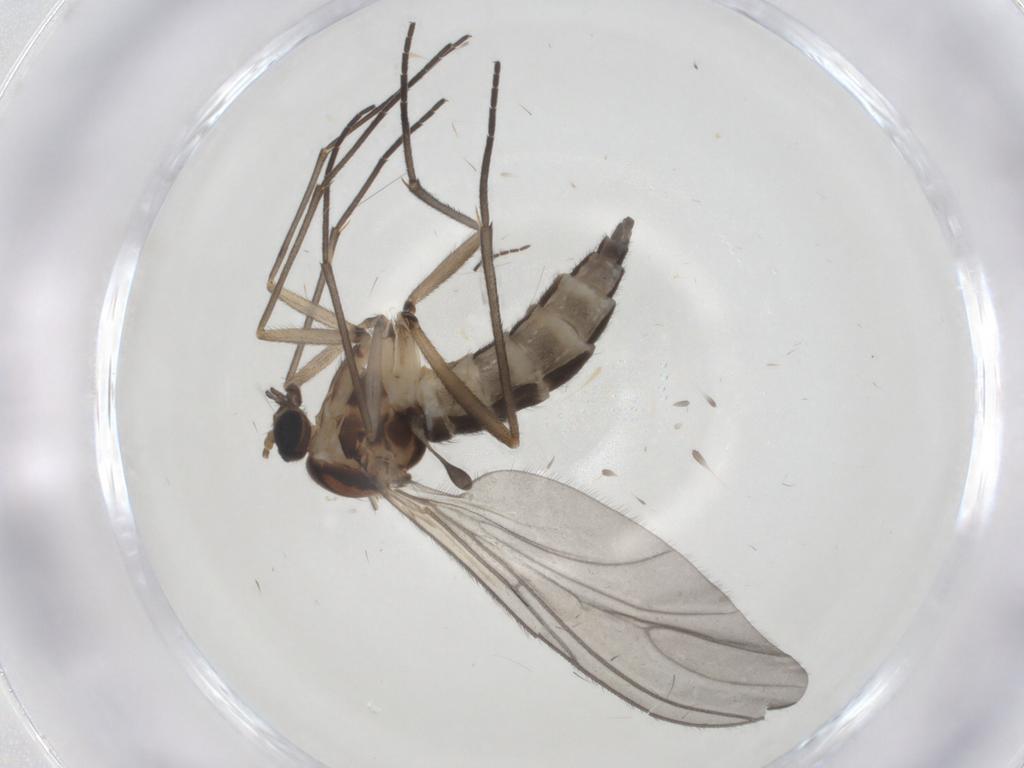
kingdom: Animalia
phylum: Arthropoda
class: Insecta
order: Diptera
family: Sciaridae
